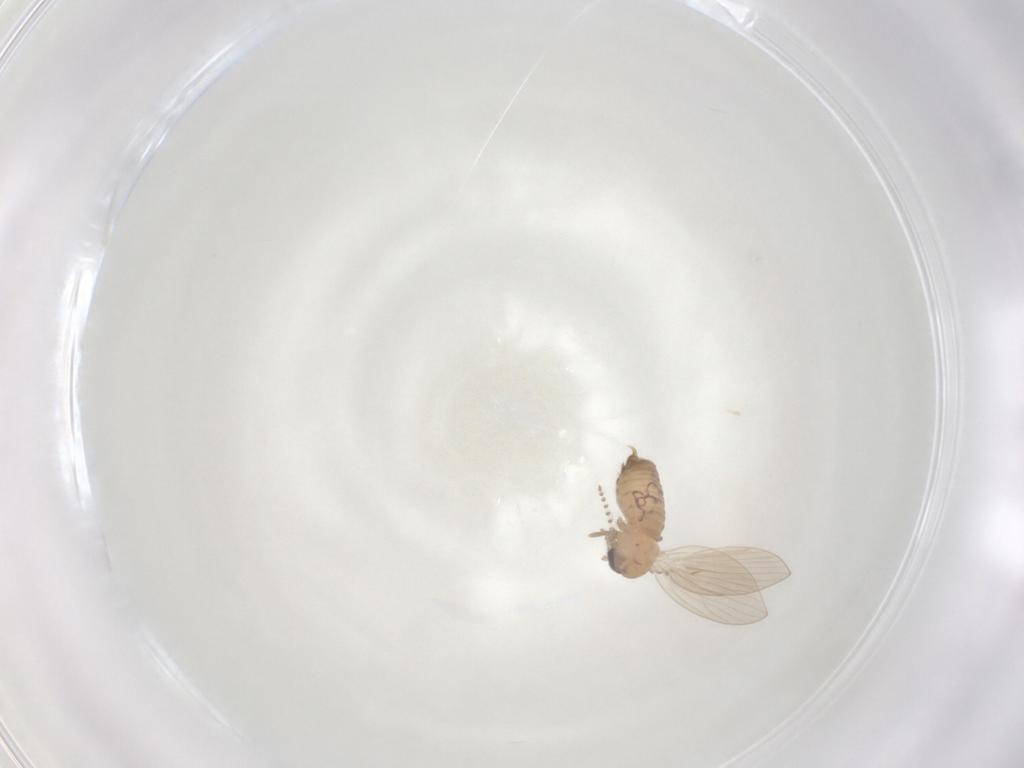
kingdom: Animalia
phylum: Arthropoda
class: Insecta
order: Diptera
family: Psychodidae
